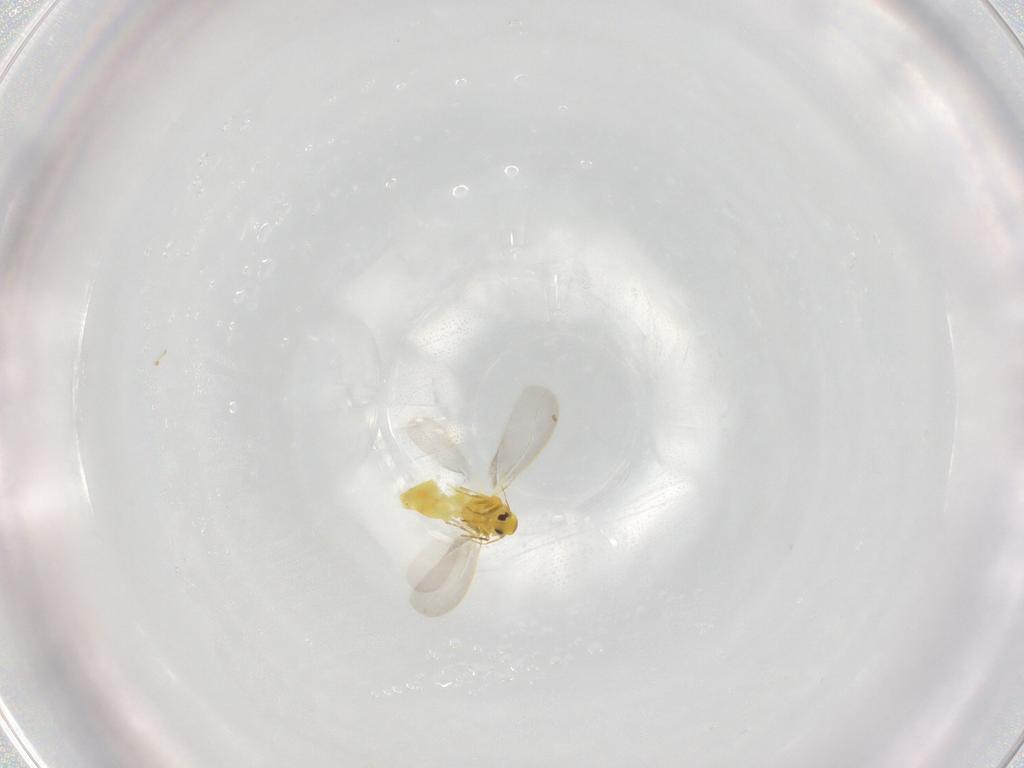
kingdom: Animalia
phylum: Arthropoda
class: Insecta
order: Hemiptera
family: Aleyrodidae
